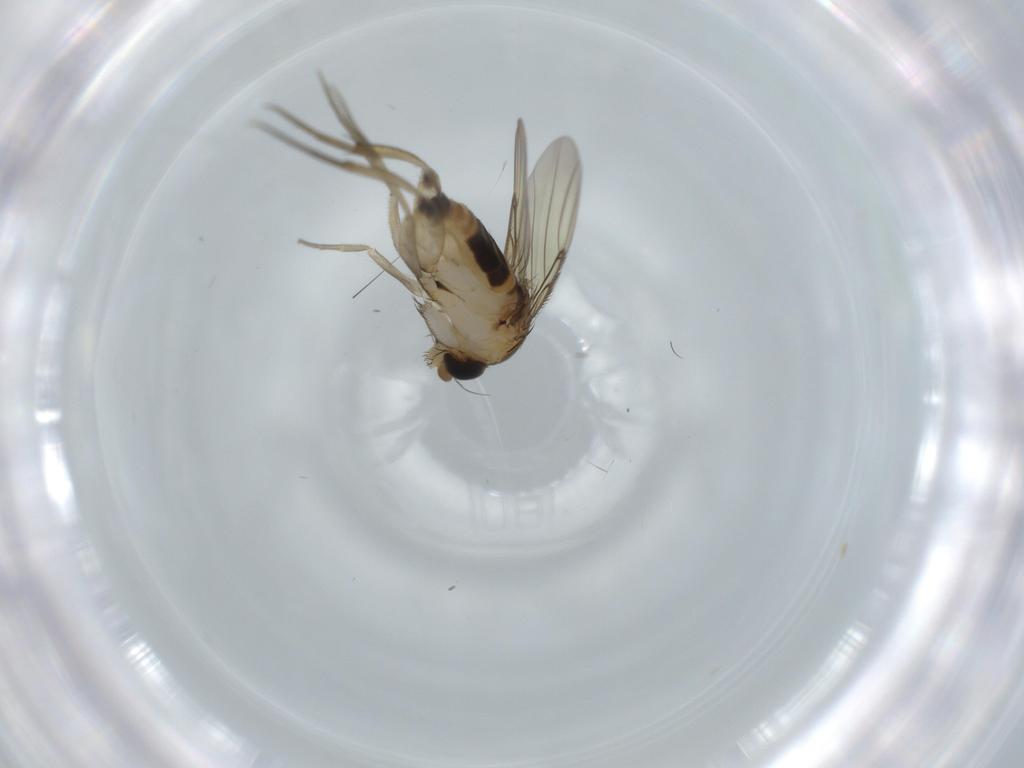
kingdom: Animalia
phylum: Arthropoda
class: Insecta
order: Diptera
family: Phoridae
